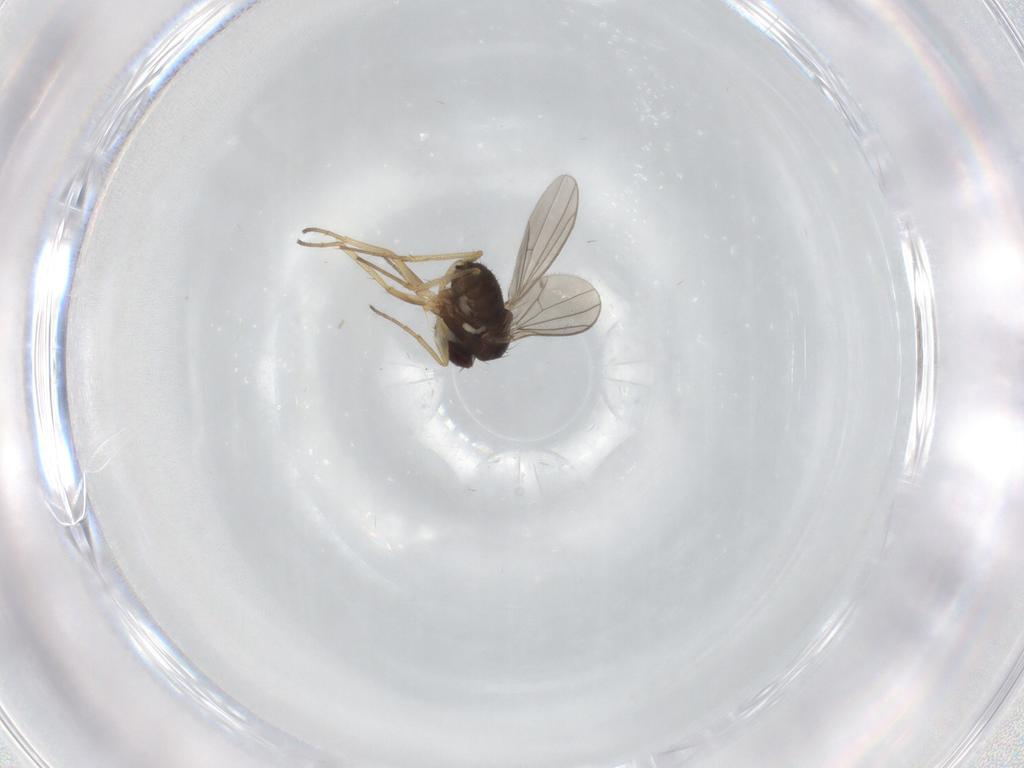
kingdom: Animalia
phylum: Arthropoda
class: Insecta
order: Diptera
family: Dolichopodidae
